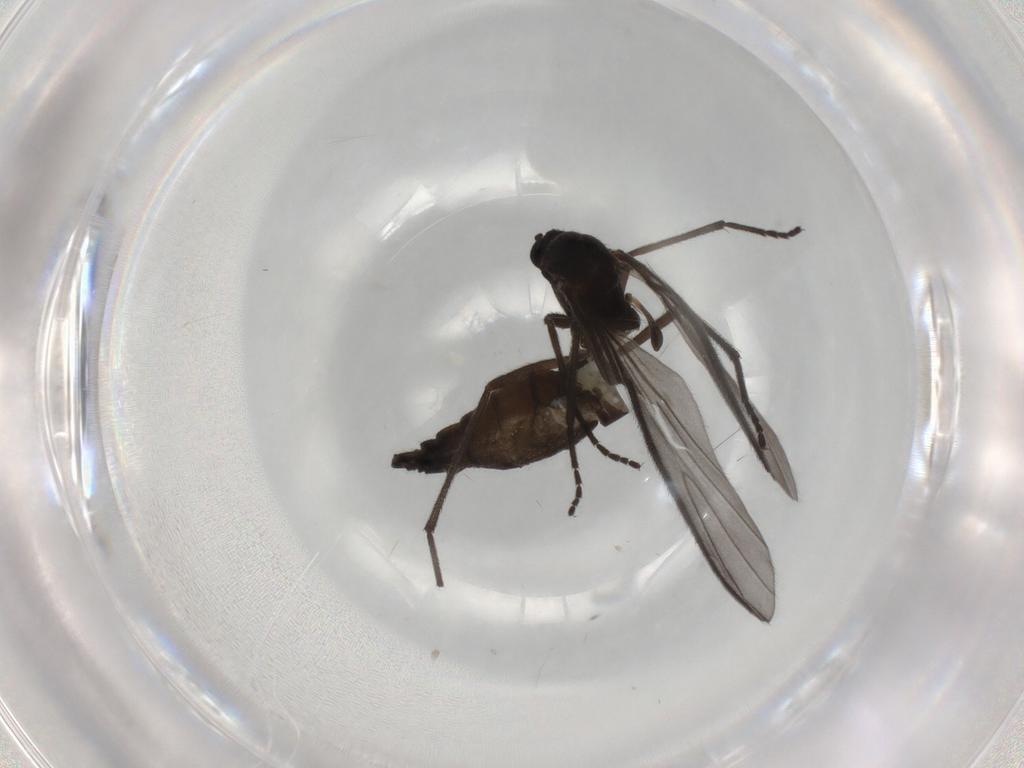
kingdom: Animalia
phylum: Arthropoda
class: Insecta
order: Diptera
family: Sciaridae
